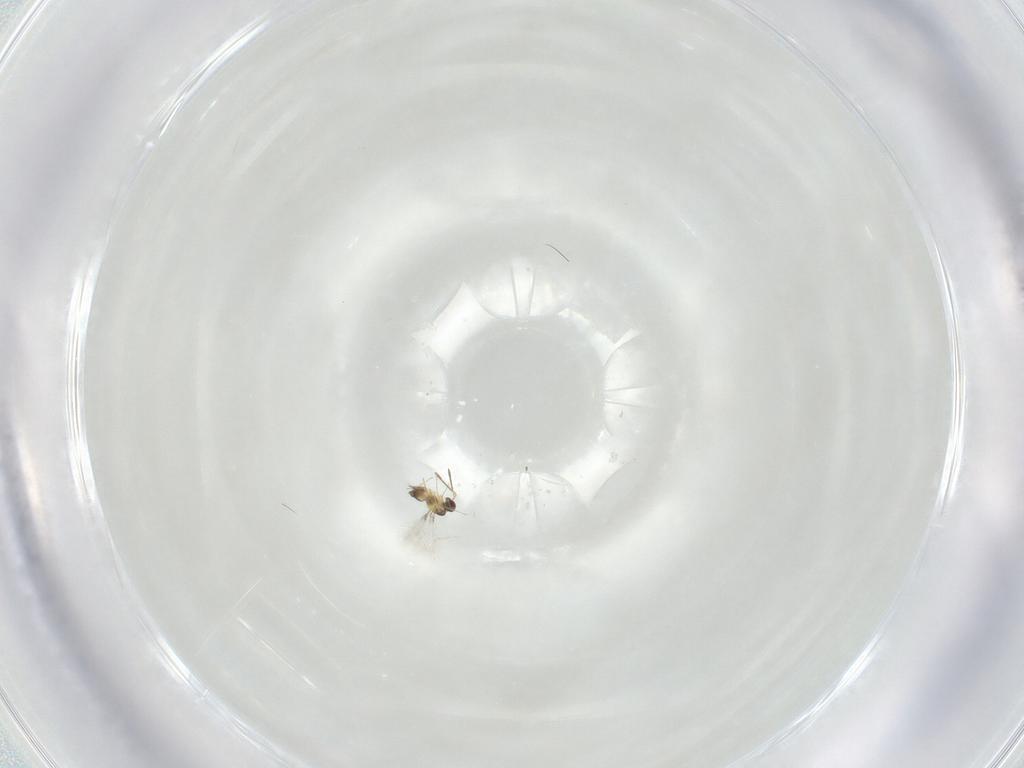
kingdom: Animalia
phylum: Arthropoda
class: Insecta
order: Hymenoptera
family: Mymaridae
